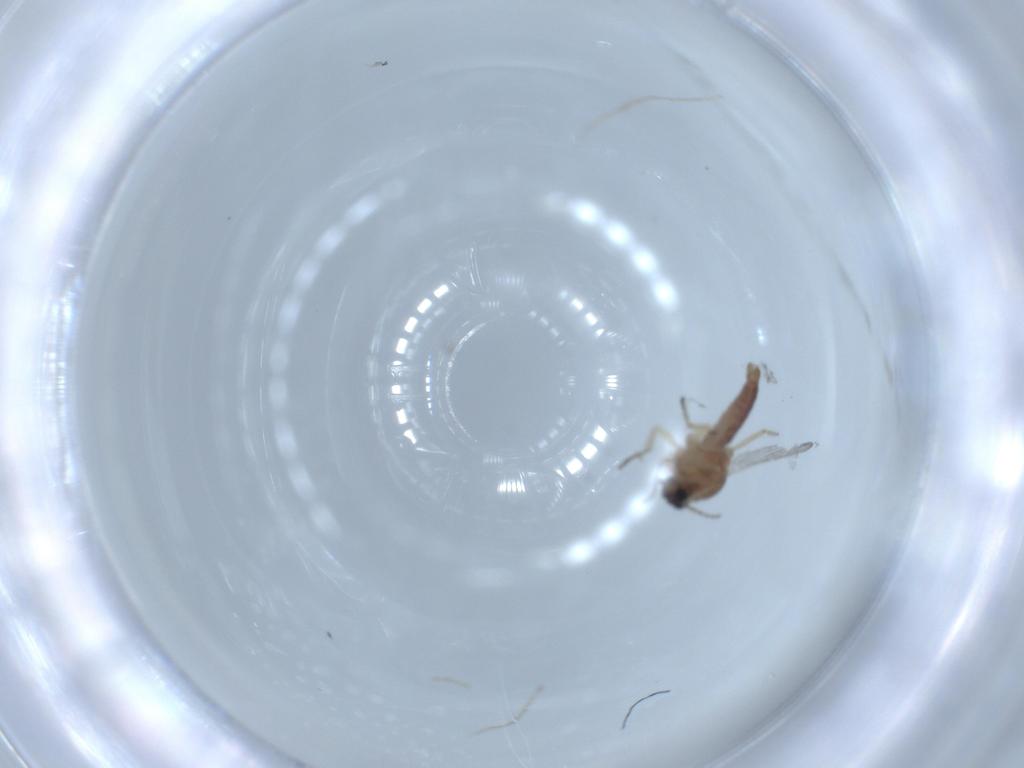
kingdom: Animalia
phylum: Arthropoda
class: Insecta
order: Diptera
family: Ceratopogonidae
